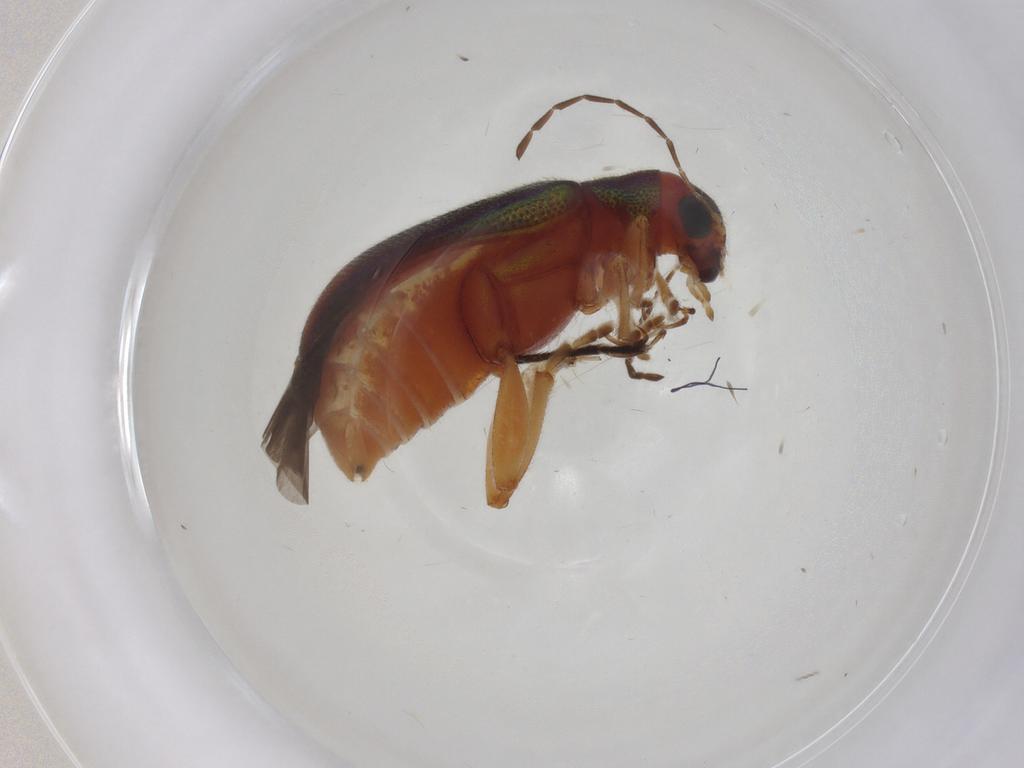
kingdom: Animalia
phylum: Arthropoda
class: Insecta
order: Coleoptera
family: Chrysomelidae
